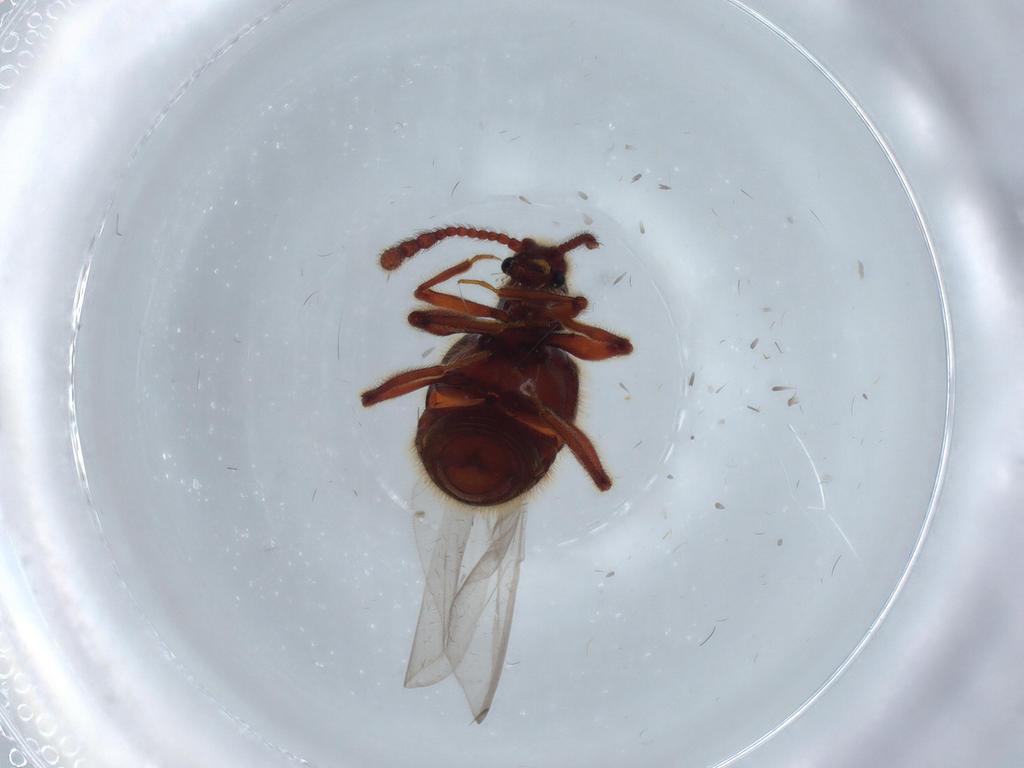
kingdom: Animalia
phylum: Arthropoda
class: Insecta
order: Coleoptera
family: Staphylinidae
